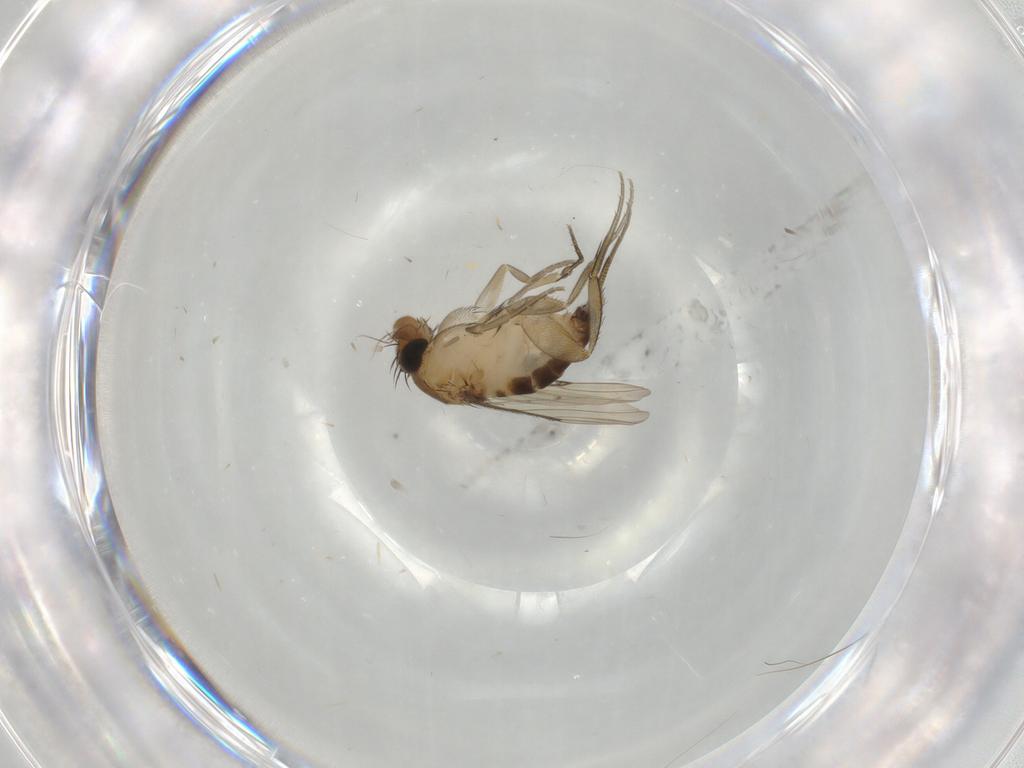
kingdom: Animalia
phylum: Arthropoda
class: Insecta
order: Diptera
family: Phoridae
